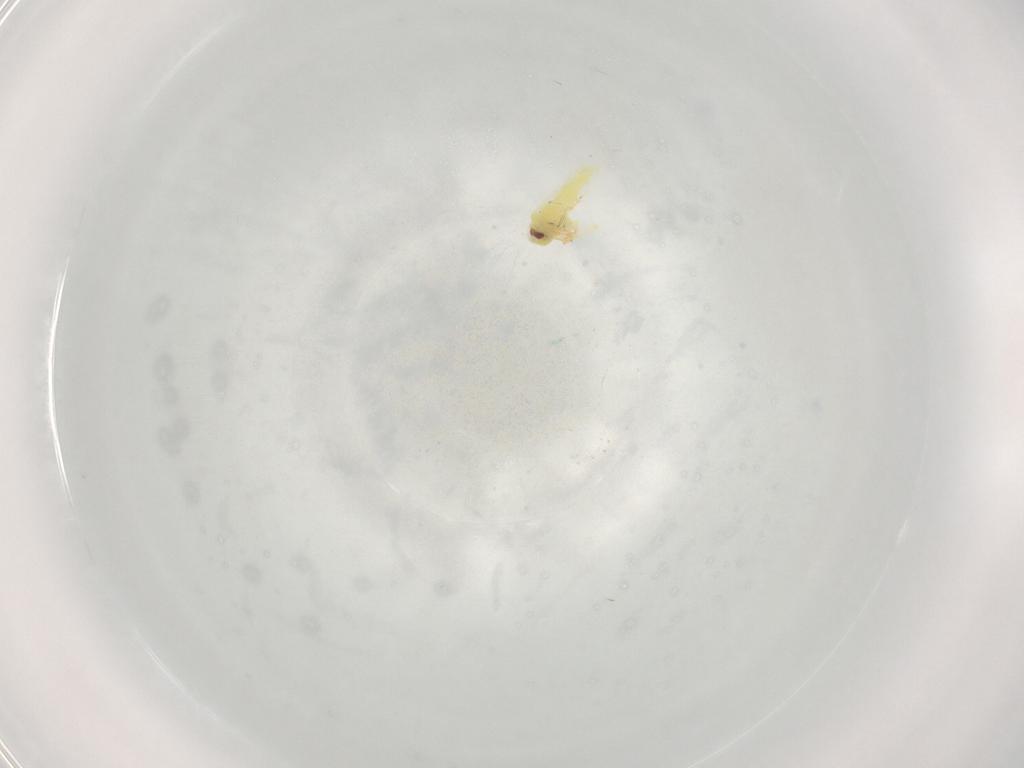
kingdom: Animalia
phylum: Arthropoda
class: Insecta
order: Hemiptera
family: Aleyrodidae
